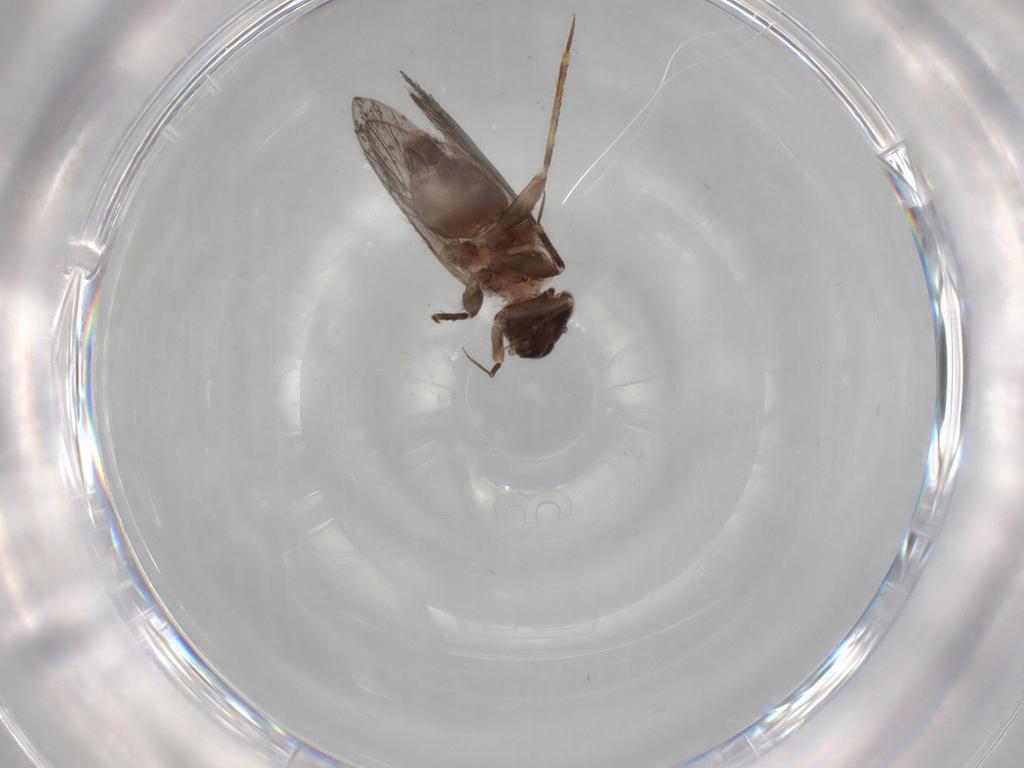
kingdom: Animalia
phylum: Arthropoda
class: Insecta
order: Psocodea
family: Lepidopsocidae
